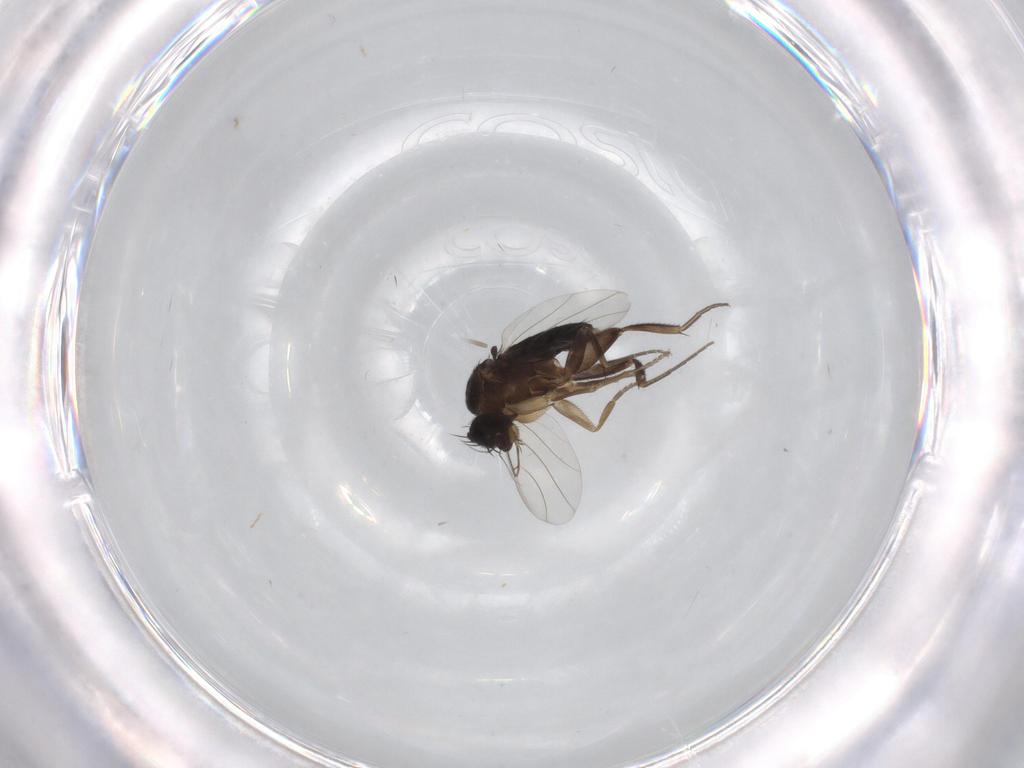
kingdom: Animalia
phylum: Arthropoda
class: Insecta
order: Diptera
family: Phoridae
